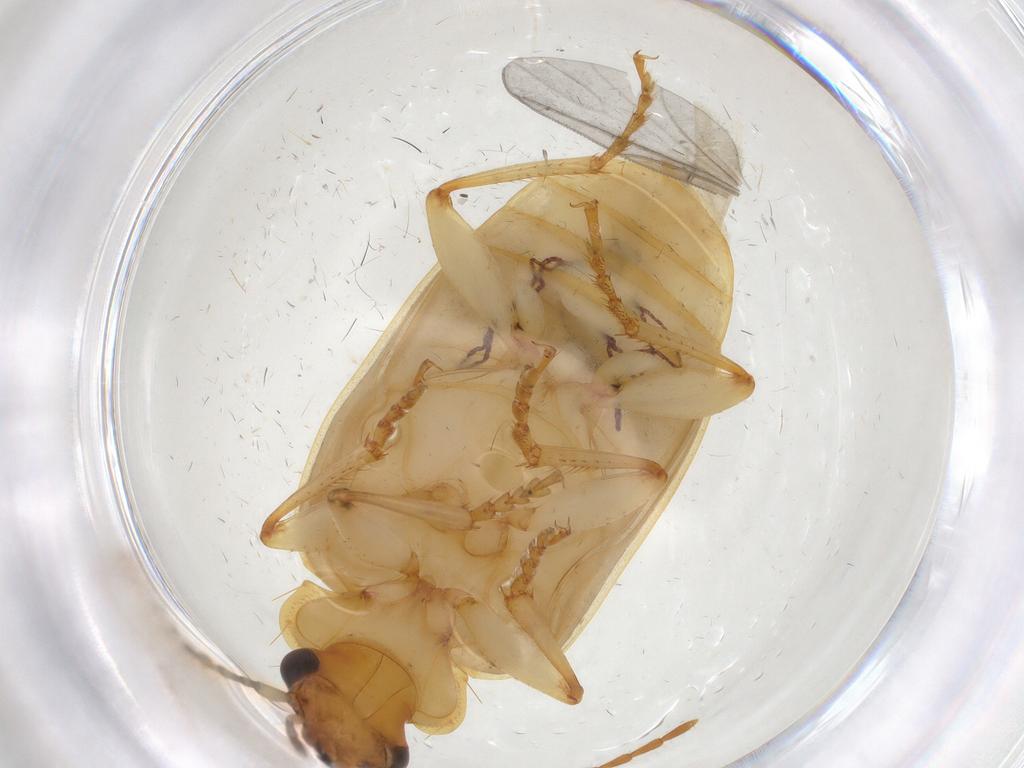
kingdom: Animalia
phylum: Arthropoda
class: Insecta
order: Coleoptera
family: Carabidae
